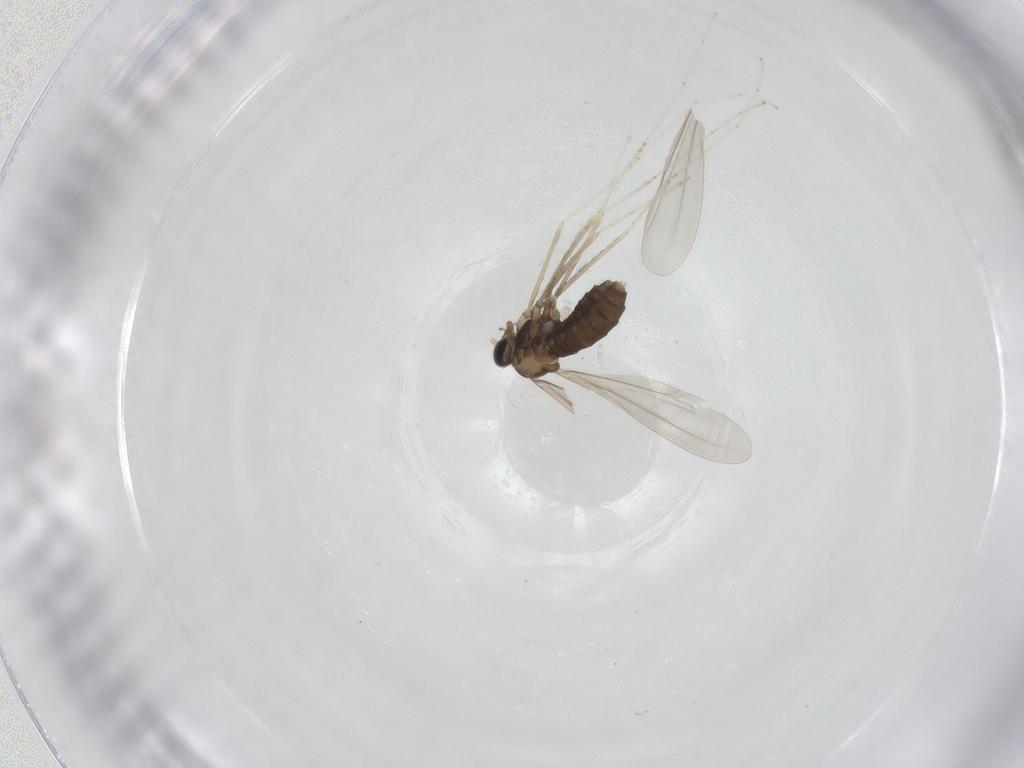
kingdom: Animalia
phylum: Arthropoda
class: Insecta
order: Diptera
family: Cecidomyiidae
